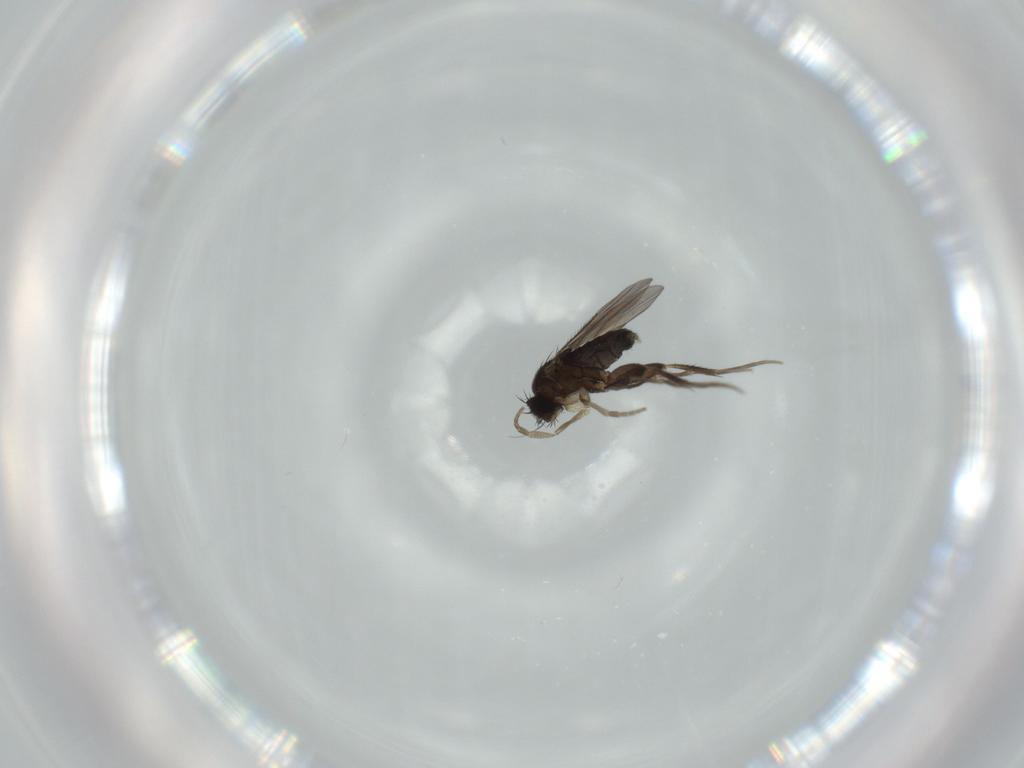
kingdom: Animalia
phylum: Arthropoda
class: Insecta
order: Diptera
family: Phoridae
